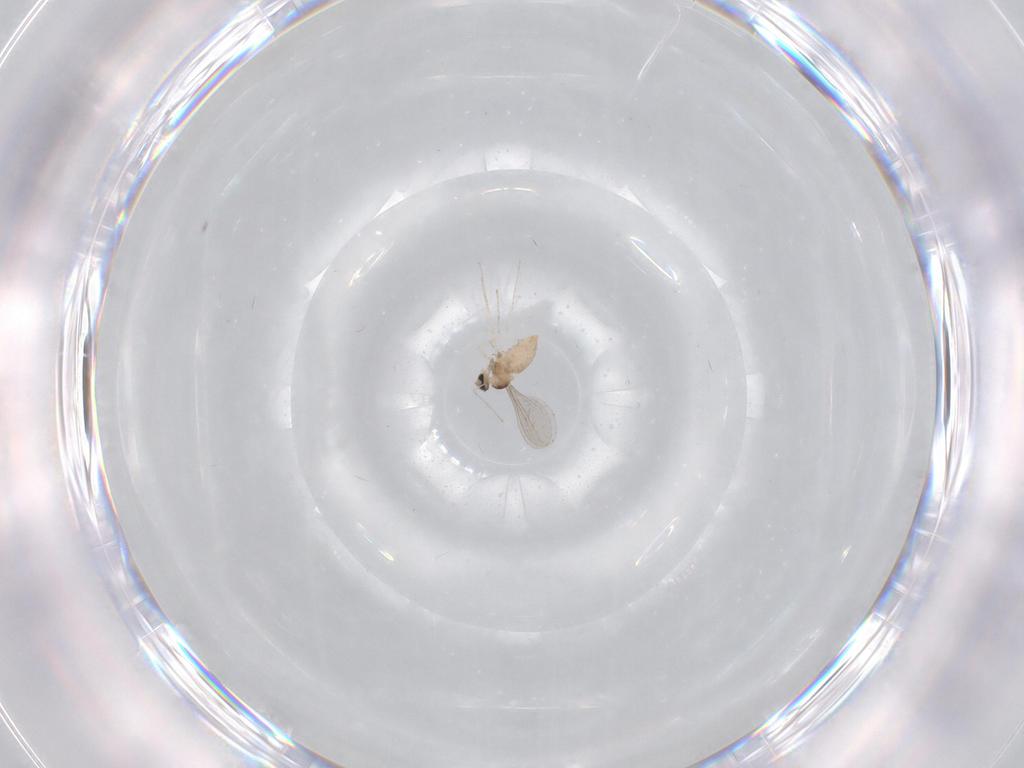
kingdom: Animalia
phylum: Arthropoda
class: Insecta
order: Diptera
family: Cecidomyiidae
